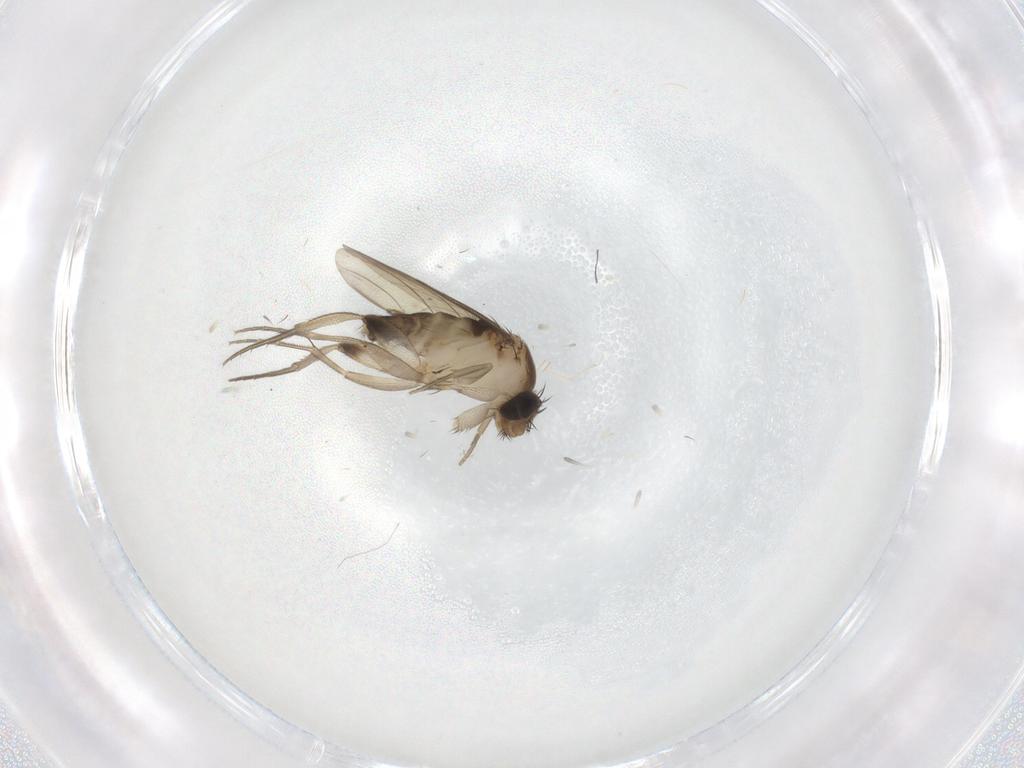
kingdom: Animalia
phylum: Arthropoda
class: Insecta
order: Diptera
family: Phoridae
